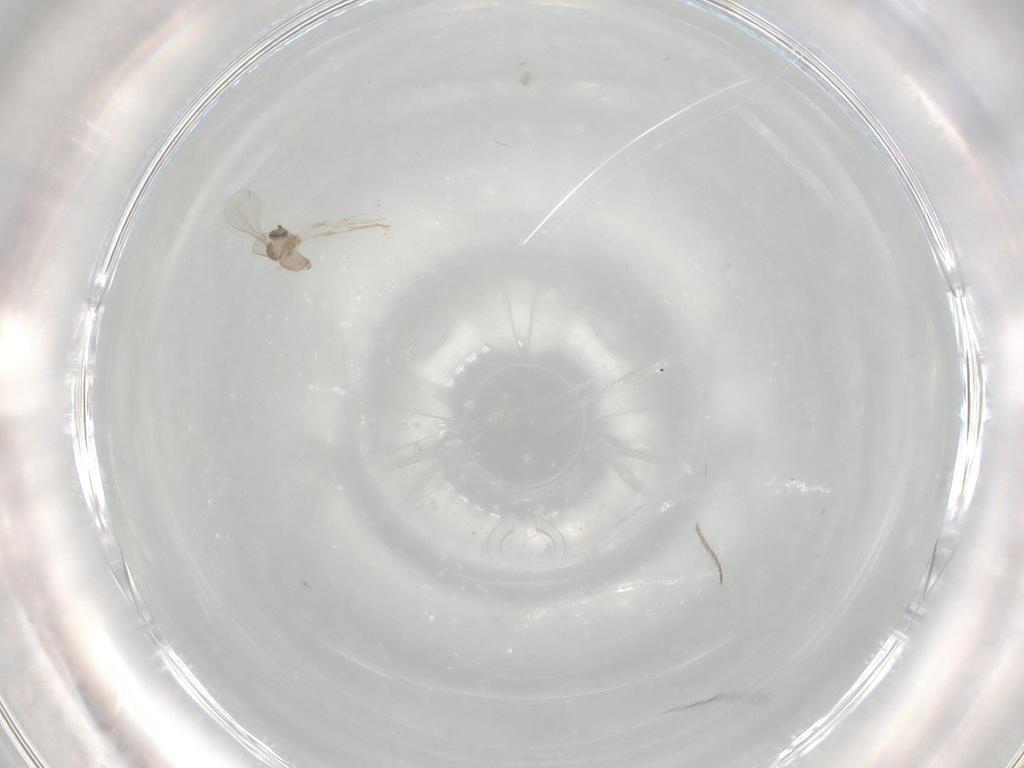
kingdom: Animalia
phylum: Arthropoda
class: Insecta
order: Diptera
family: Cecidomyiidae
